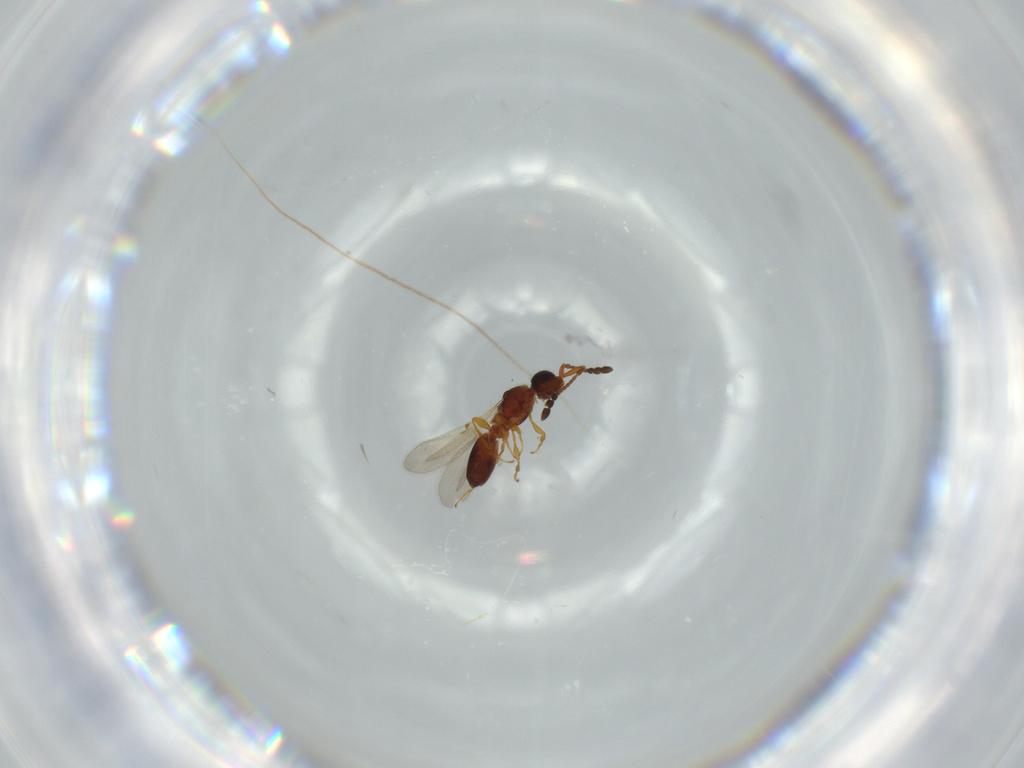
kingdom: Animalia
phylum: Arthropoda
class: Insecta
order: Hymenoptera
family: Diapriidae
